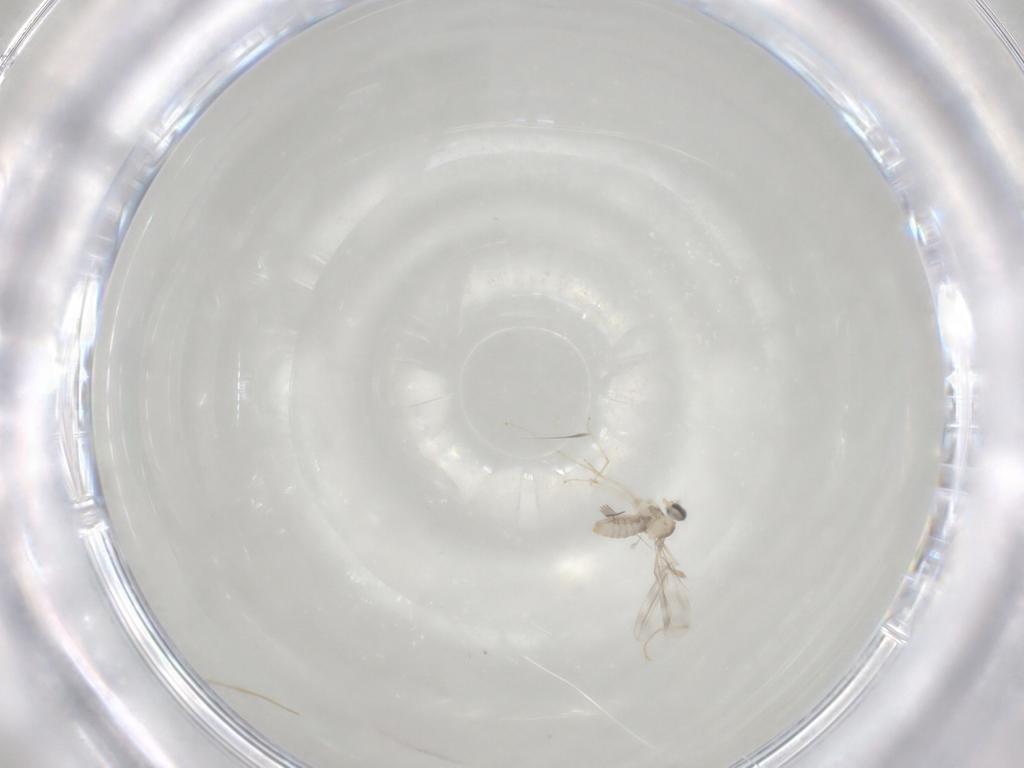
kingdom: Animalia
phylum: Arthropoda
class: Insecta
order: Diptera
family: Cecidomyiidae
